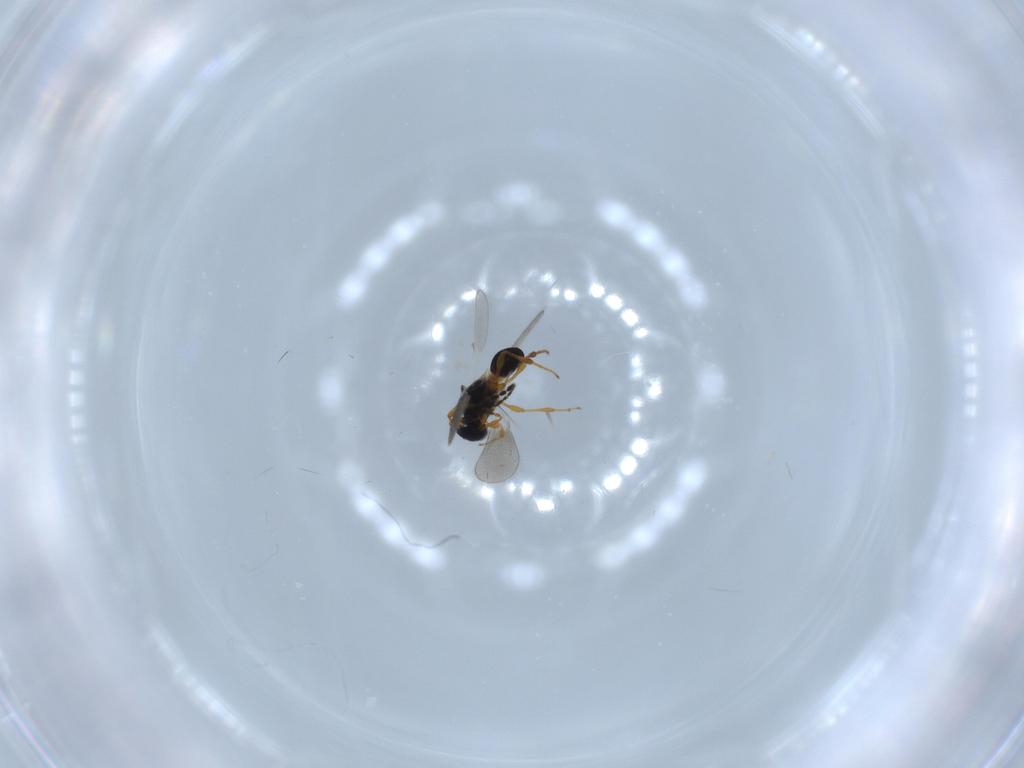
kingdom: Animalia
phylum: Arthropoda
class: Insecta
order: Hymenoptera
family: Platygastridae
